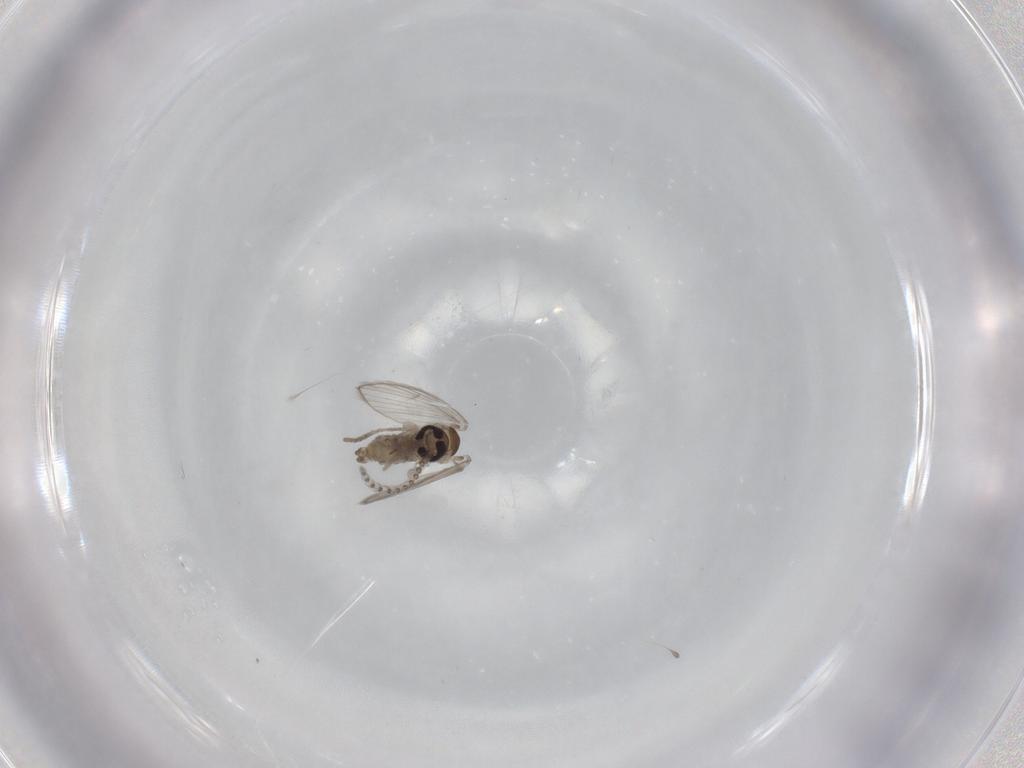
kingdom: Animalia
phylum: Arthropoda
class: Insecta
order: Diptera
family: Psychodidae
